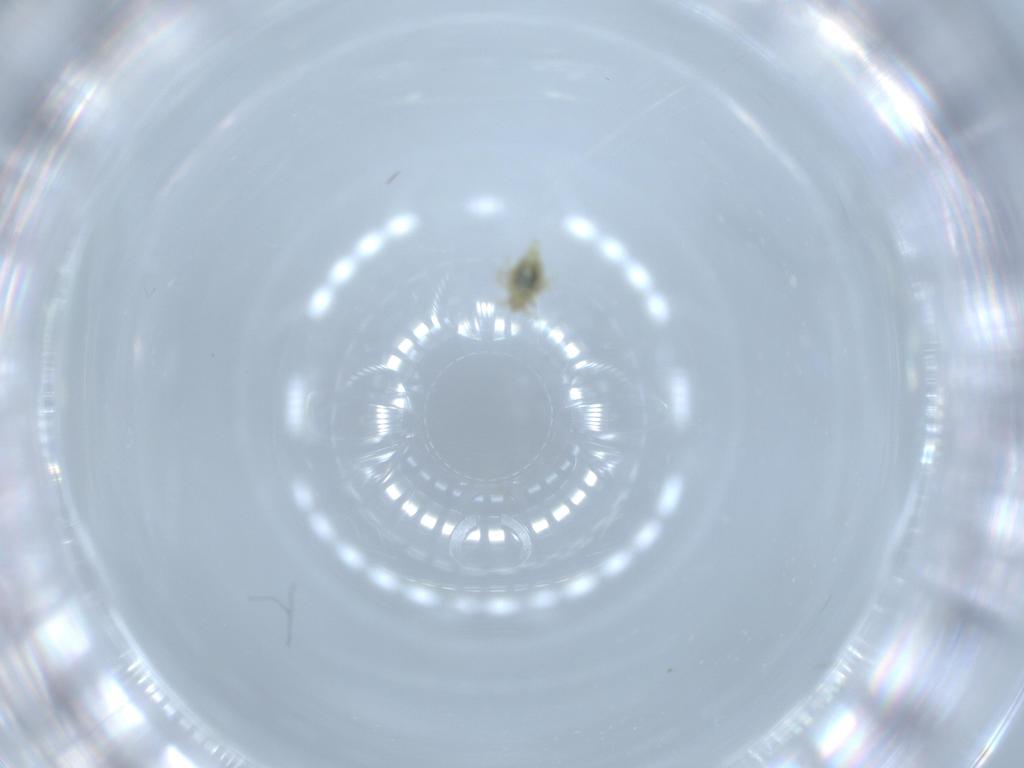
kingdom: Animalia
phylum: Arthropoda
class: Insecta
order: Neuroptera
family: Coniopterygidae
